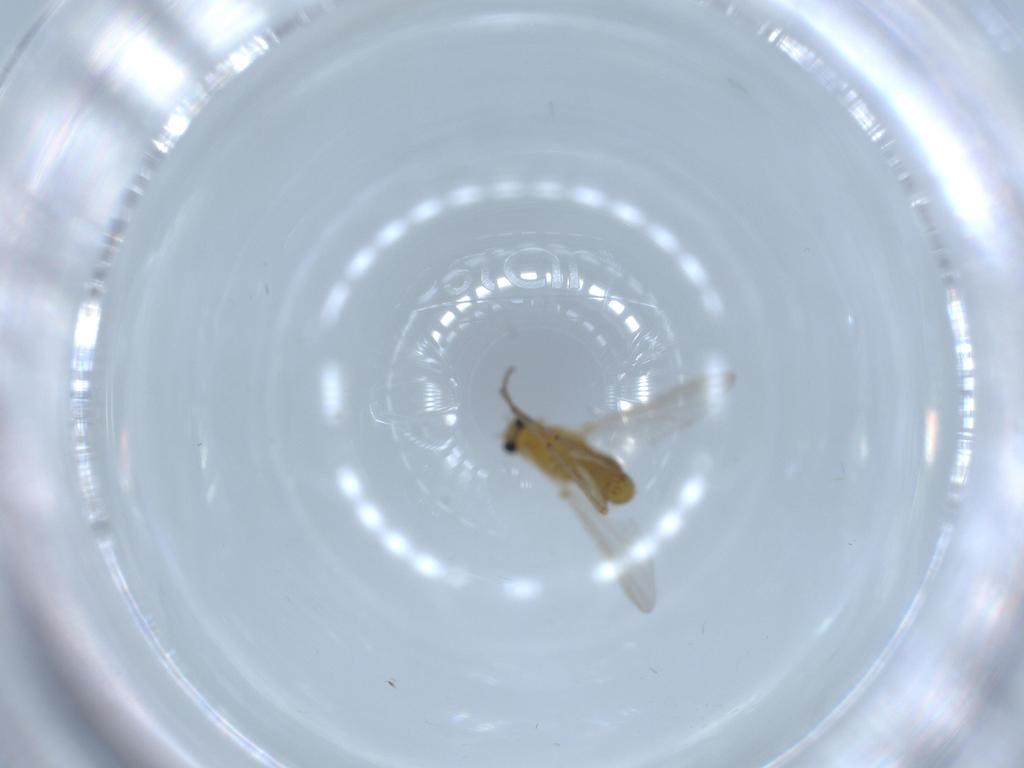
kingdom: Animalia
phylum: Arthropoda
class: Insecta
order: Diptera
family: Chironomidae
